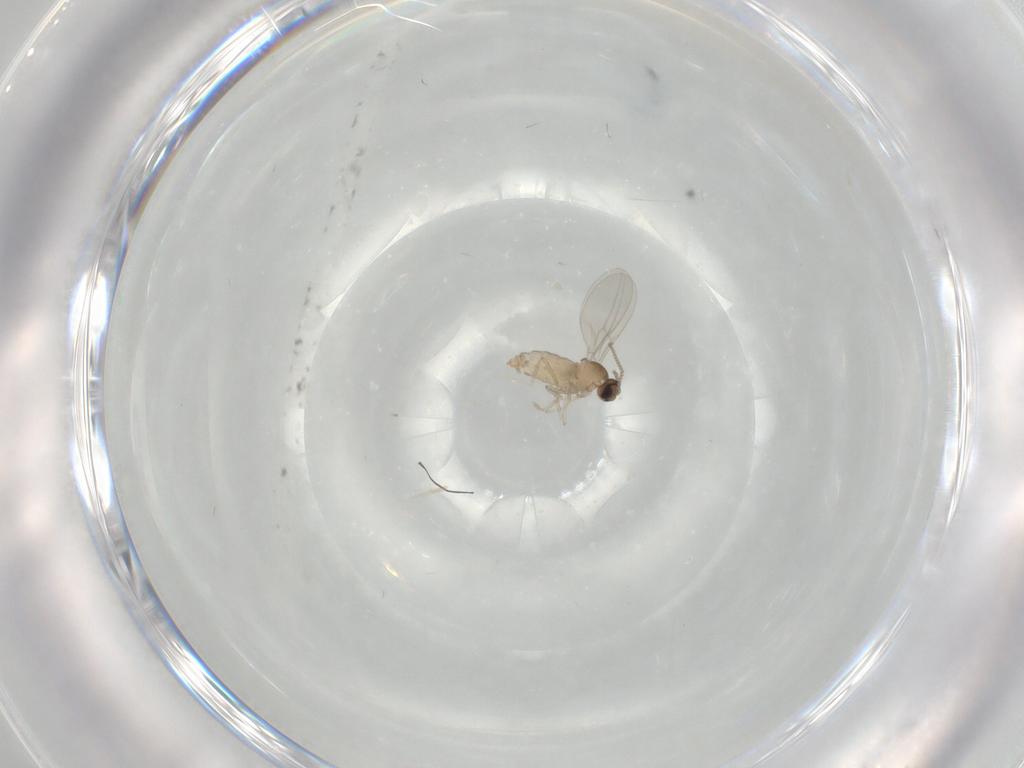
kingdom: Animalia
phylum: Arthropoda
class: Insecta
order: Diptera
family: Cecidomyiidae
